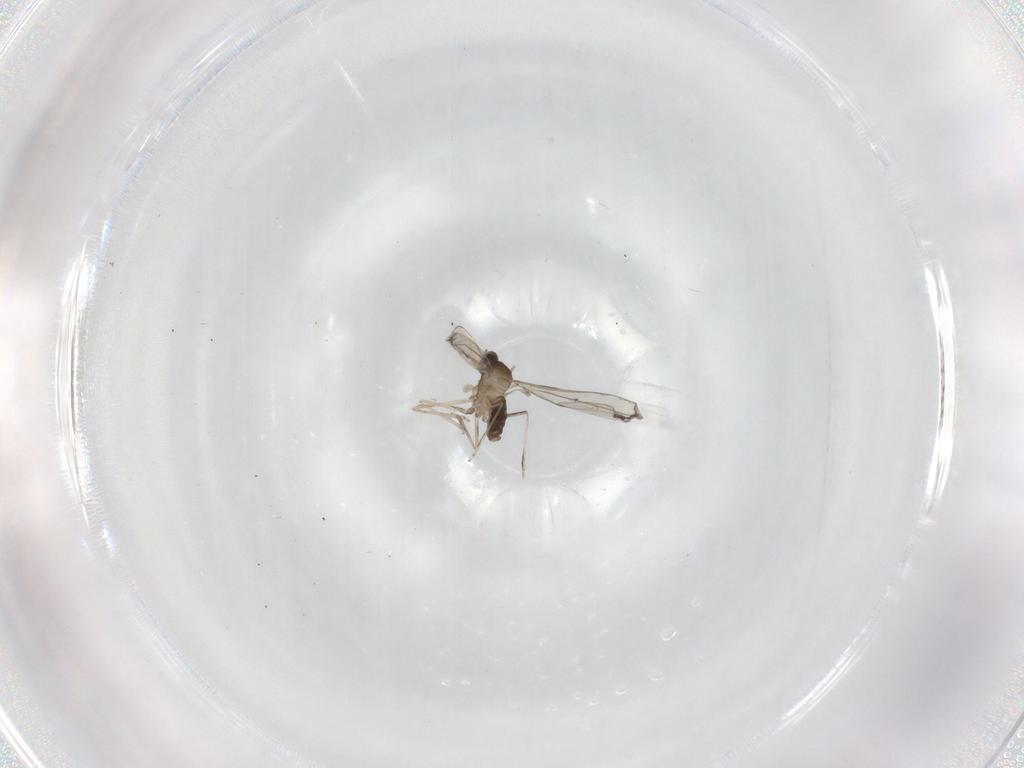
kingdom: Animalia
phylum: Arthropoda
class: Insecta
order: Diptera
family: Cecidomyiidae
